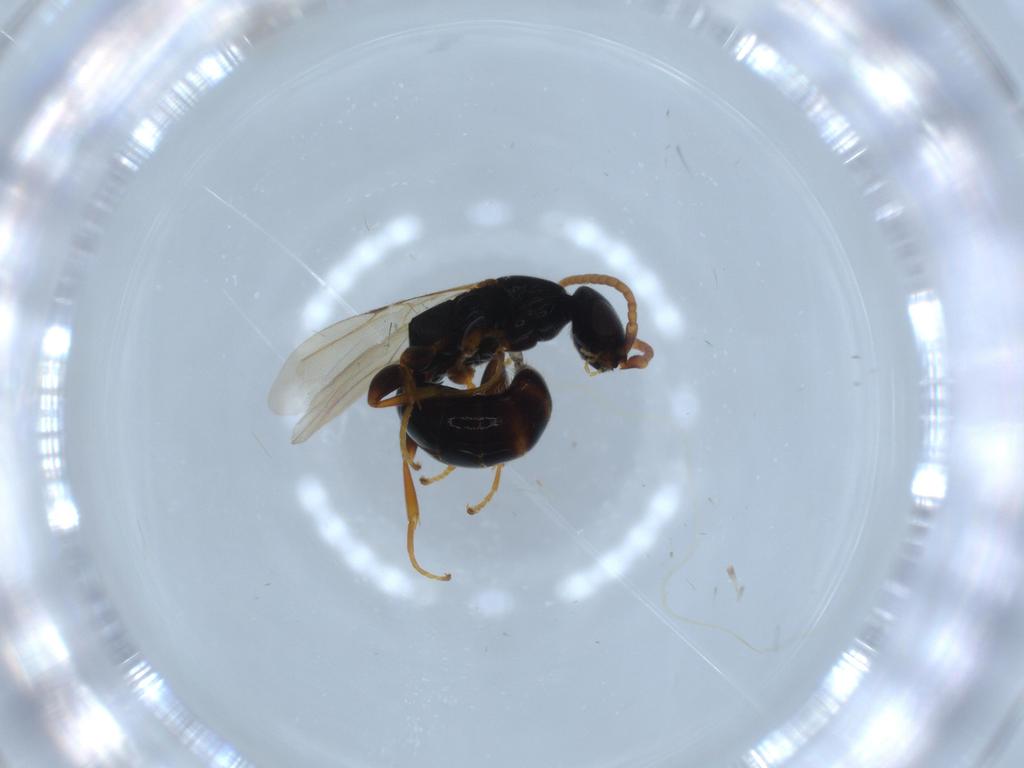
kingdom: Animalia
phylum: Arthropoda
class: Insecta
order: Hymenoptera
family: Bethylidae
